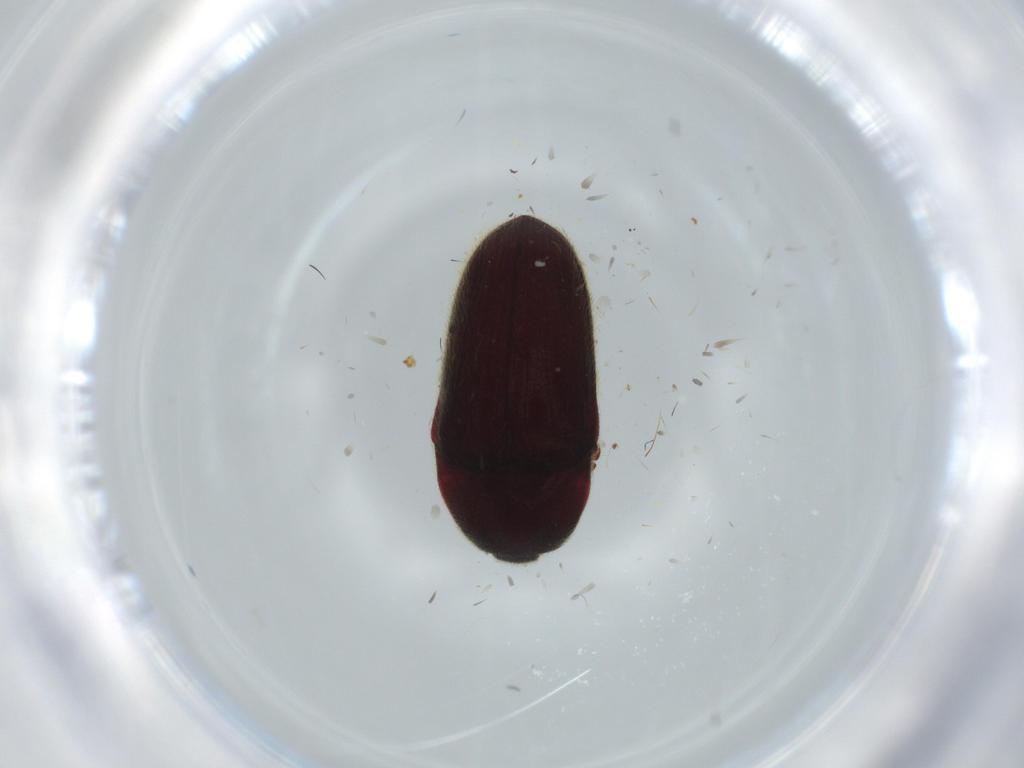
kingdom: Animalia
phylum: Arthropoda
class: Insecta
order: Coleoptera
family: Throscidae
